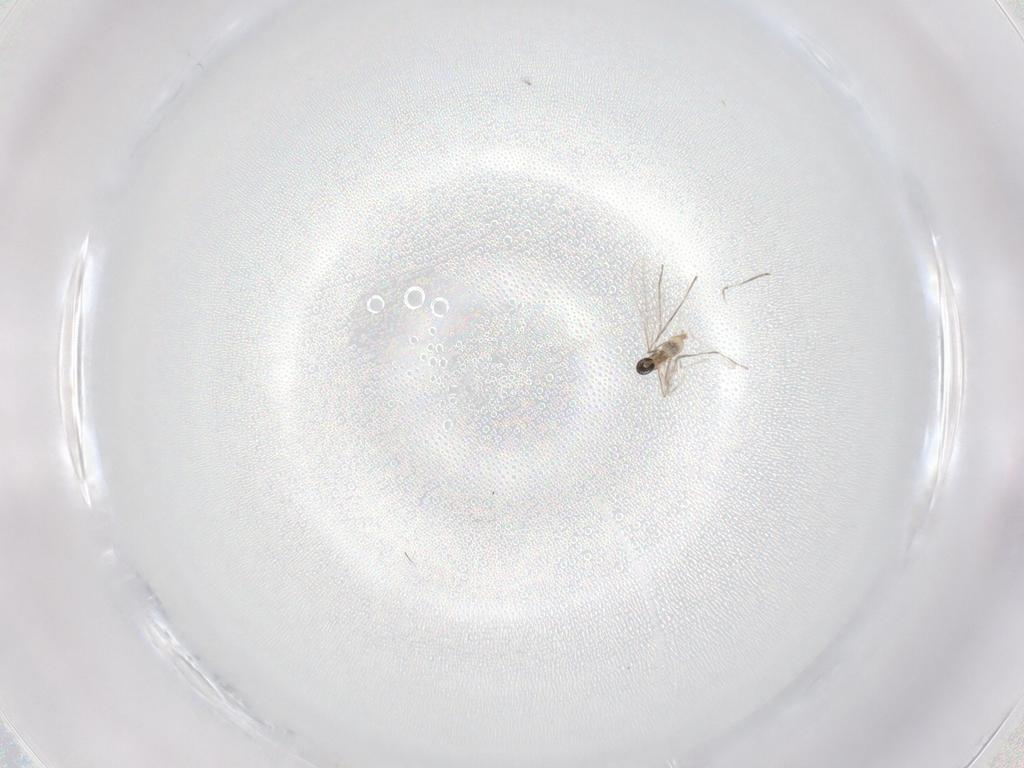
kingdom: Animalia
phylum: Arthropoda
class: Insecta
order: Diptera
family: Cecidomyiidae
